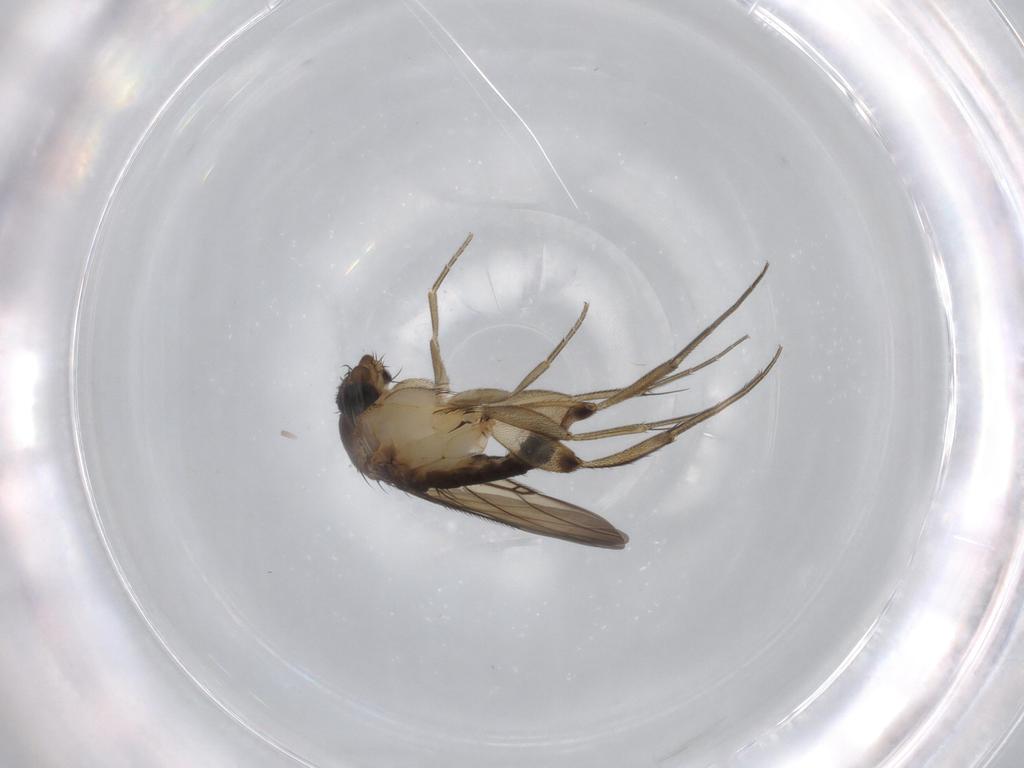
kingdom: Animalia
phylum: Arthropoda
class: Insecta
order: Diptera
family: Phoridae
